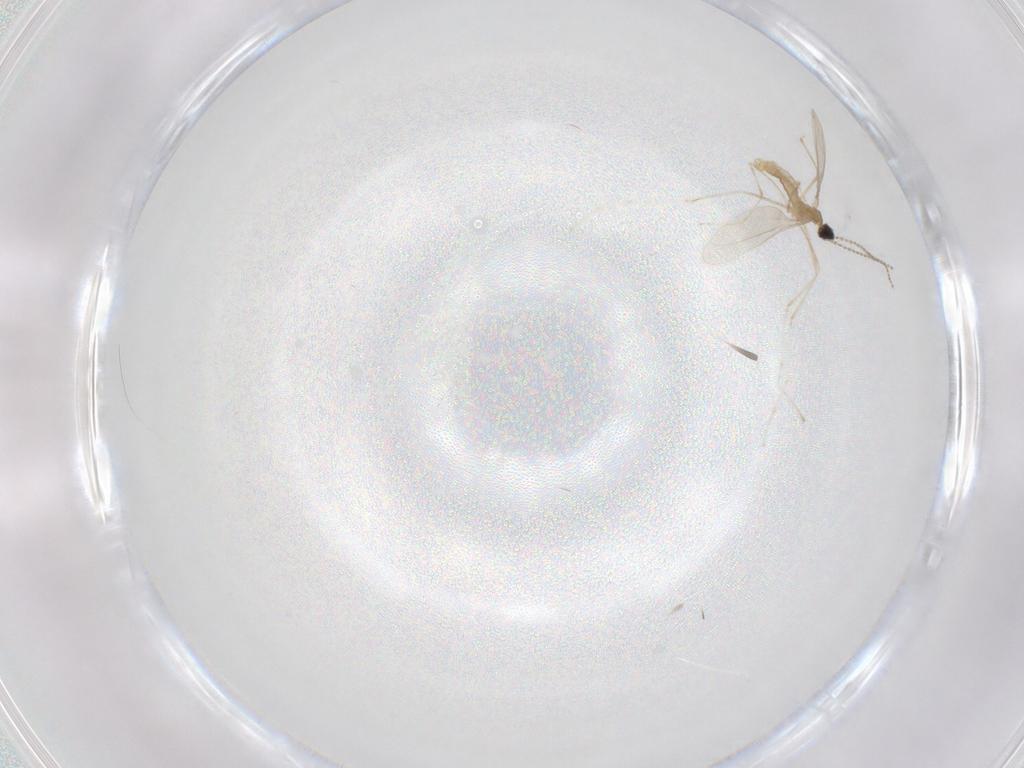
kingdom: Animalia
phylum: Arthropoda
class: Insecta
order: Diptera
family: Cecidomyiidae
